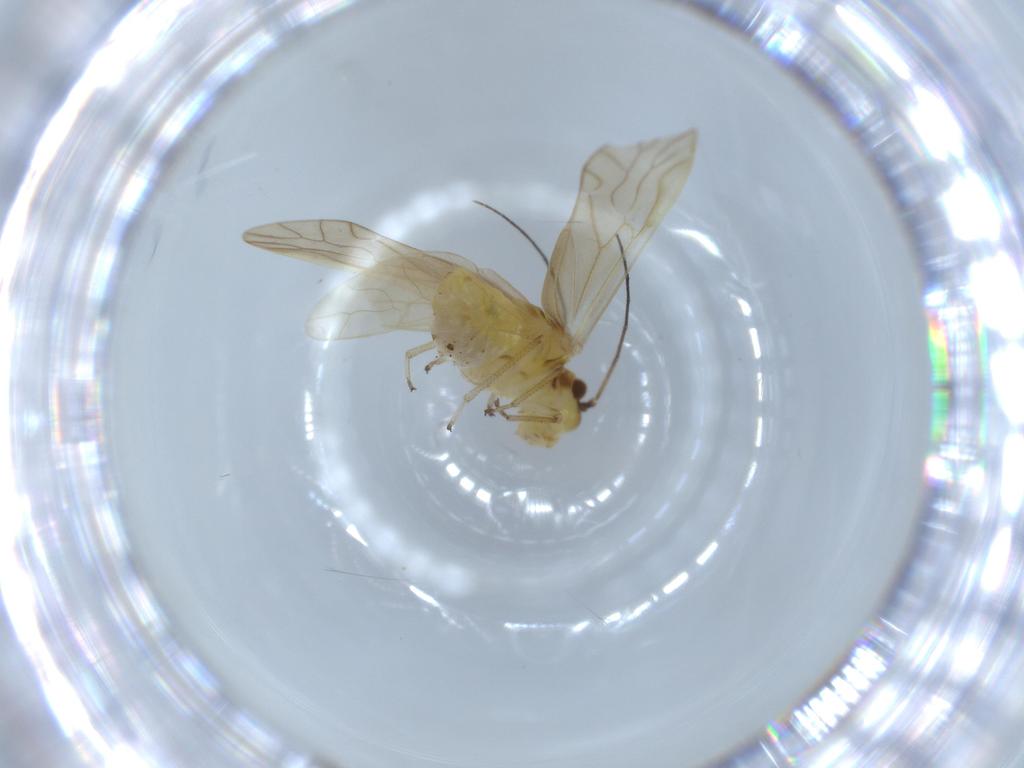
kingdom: Animalia
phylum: Arthropoda
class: Insecta
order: Psocodea
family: Caeciliusidae
